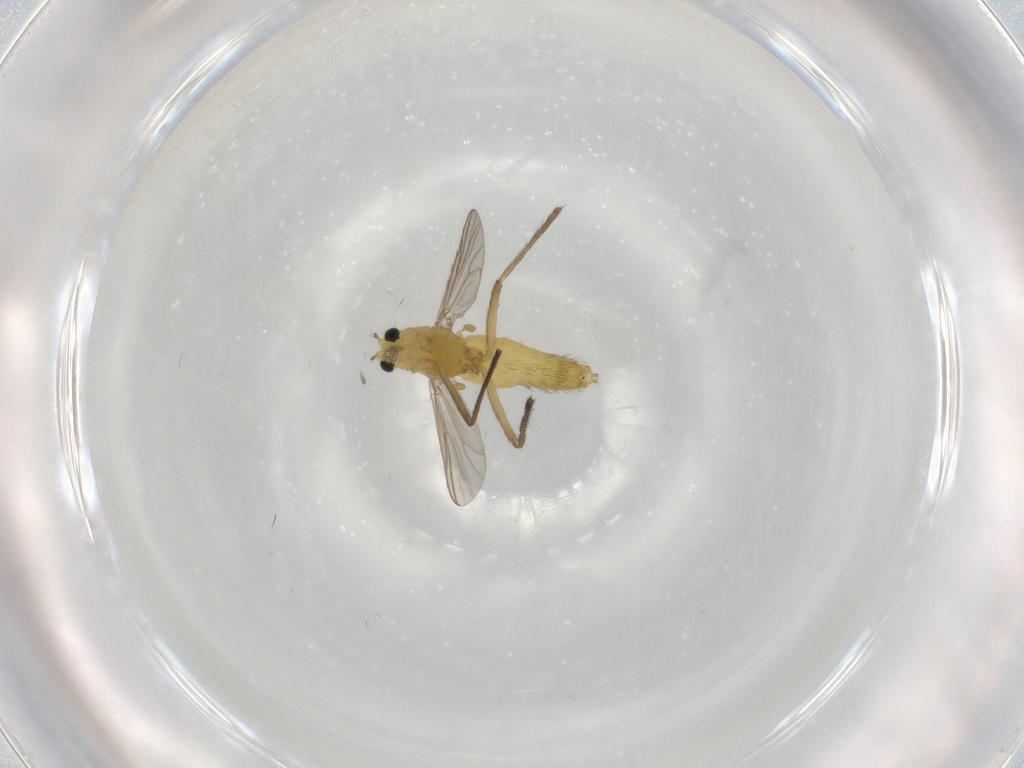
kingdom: Animalia
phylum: Arthropoda
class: Insecta
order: Diptera
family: Chironomidae
